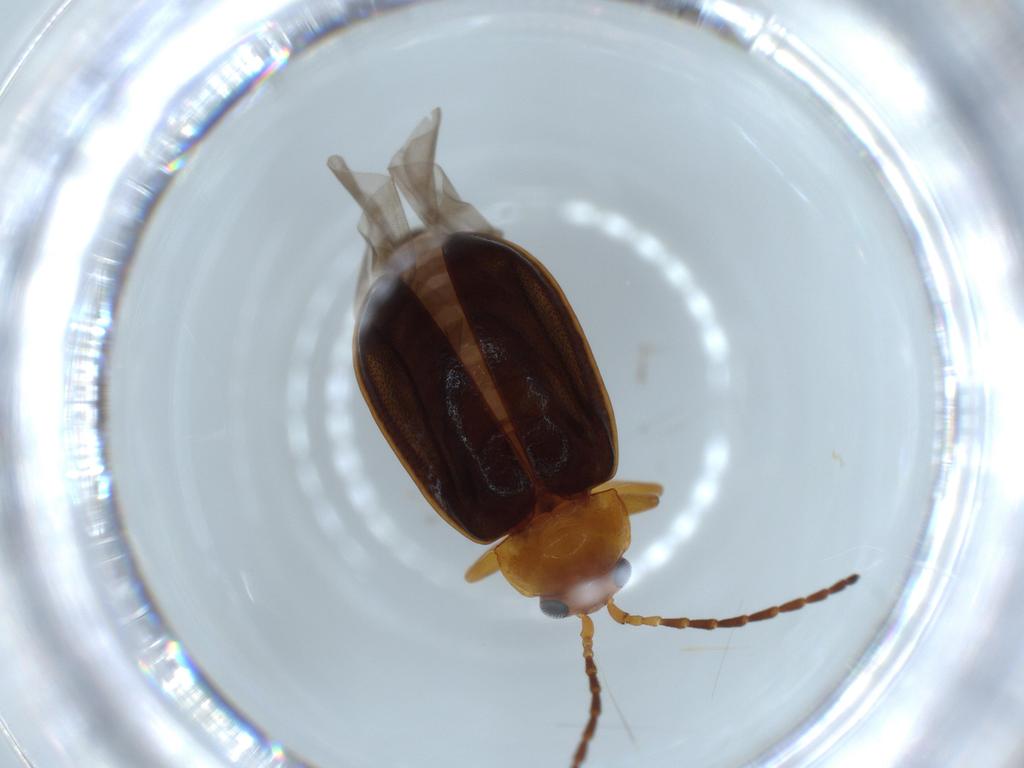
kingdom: Animalia
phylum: Arthropoda
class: Insecta
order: Coleoptera
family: Chrysomelidae
